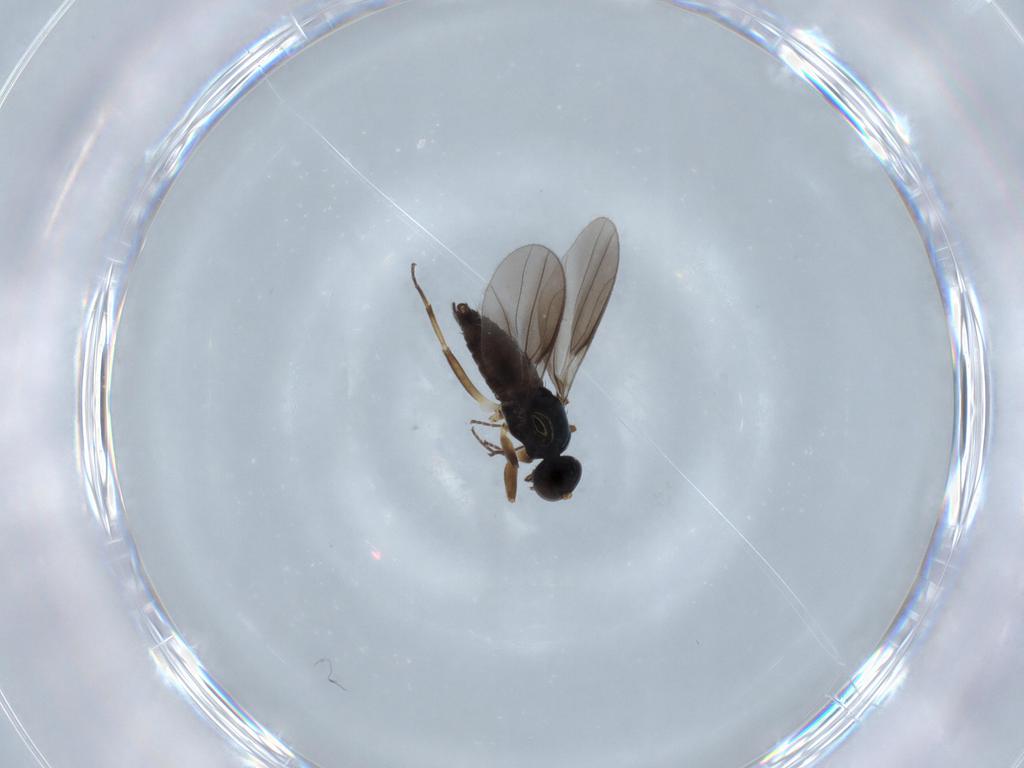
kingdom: Animalia
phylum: Arthropoda
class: Insecta
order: Diptera
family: Hybotidae
